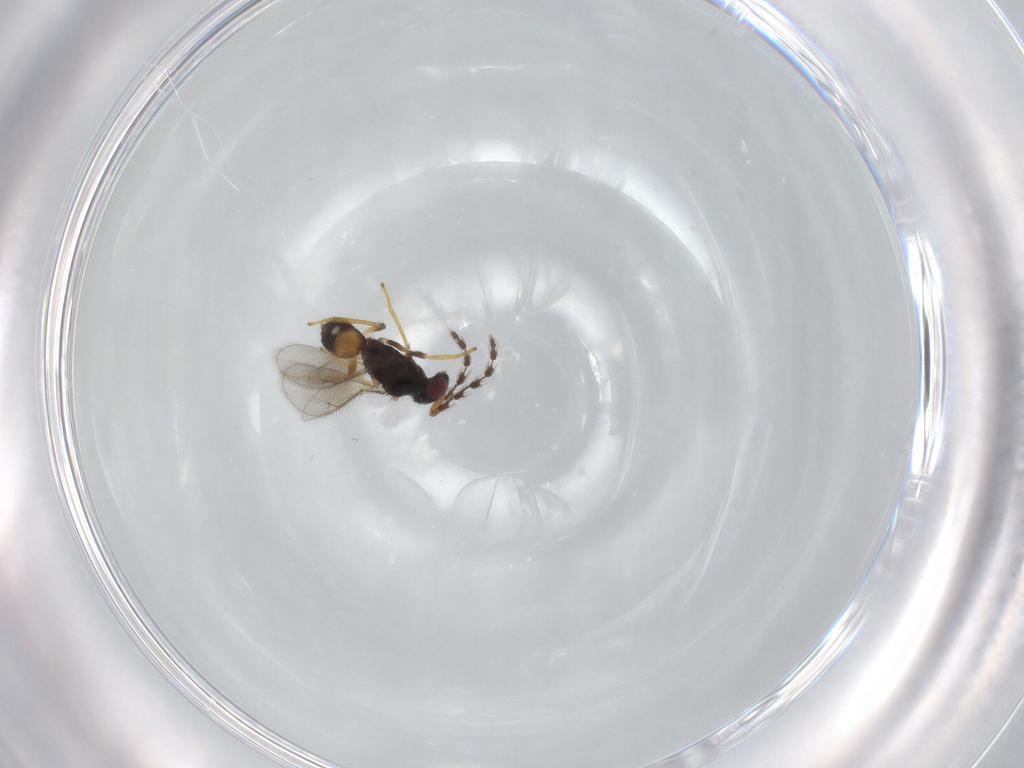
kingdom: Animalia
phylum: Arthropoda
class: Insecta
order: Hymenoptera
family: Eulophidae
